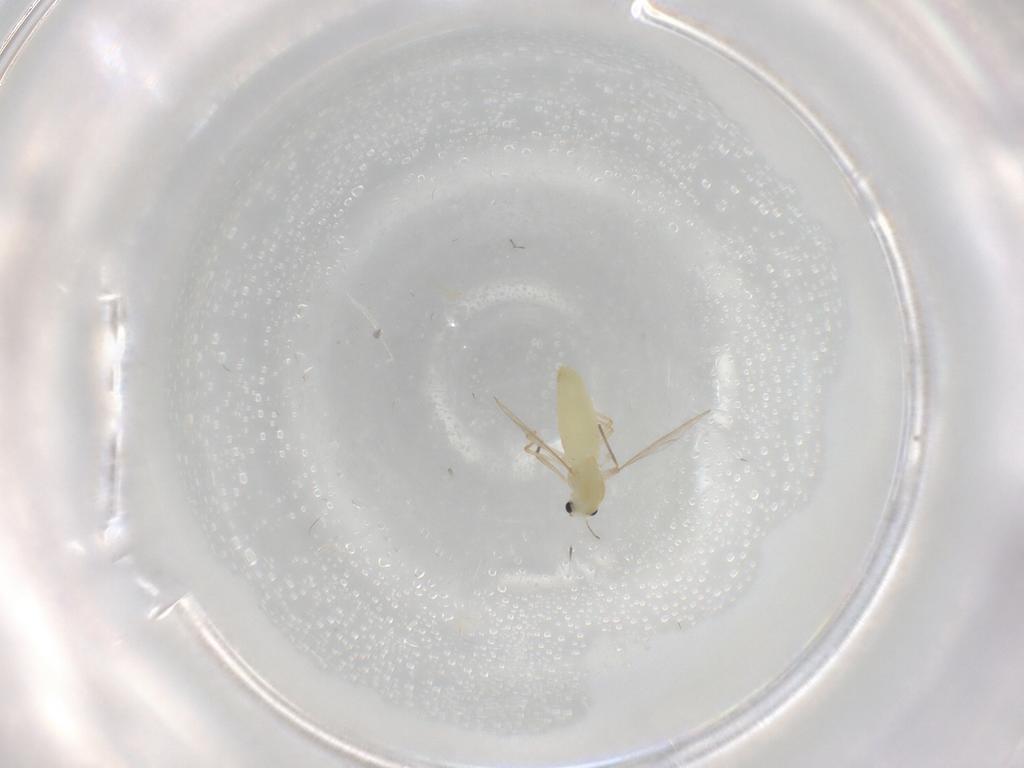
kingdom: Animalia
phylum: Arthropoda
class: Insecta
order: Diptera
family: Chironomidae
